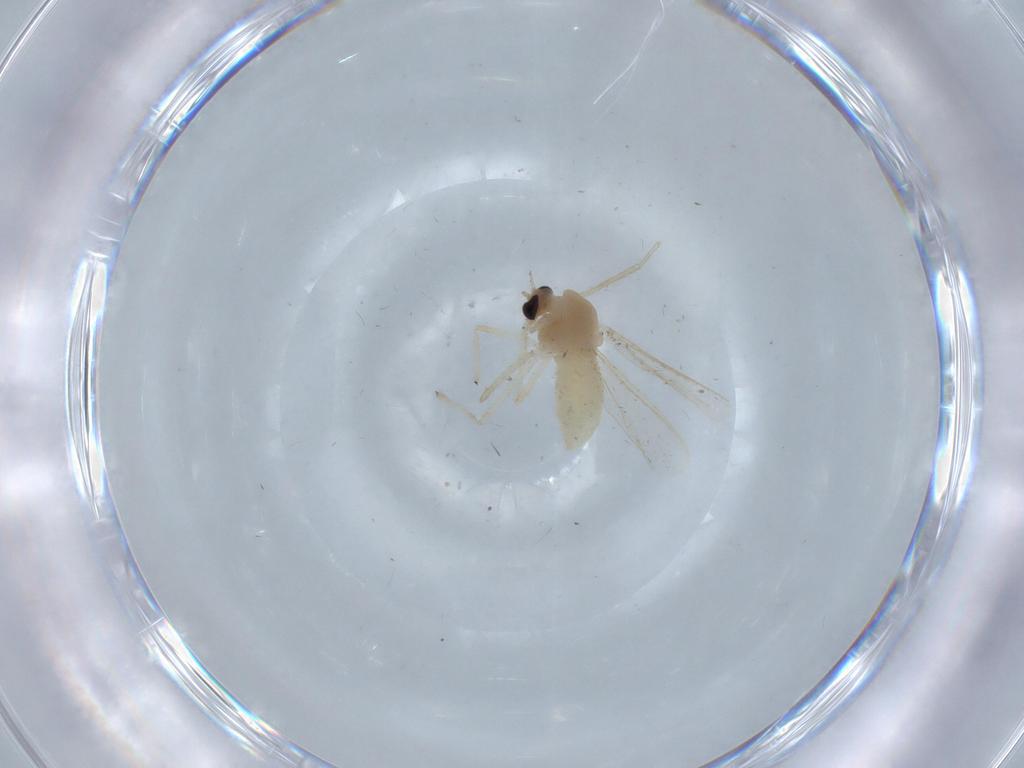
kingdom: Animalia
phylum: Arthropoda
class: Insecta
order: Diptera
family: Chironomidae
